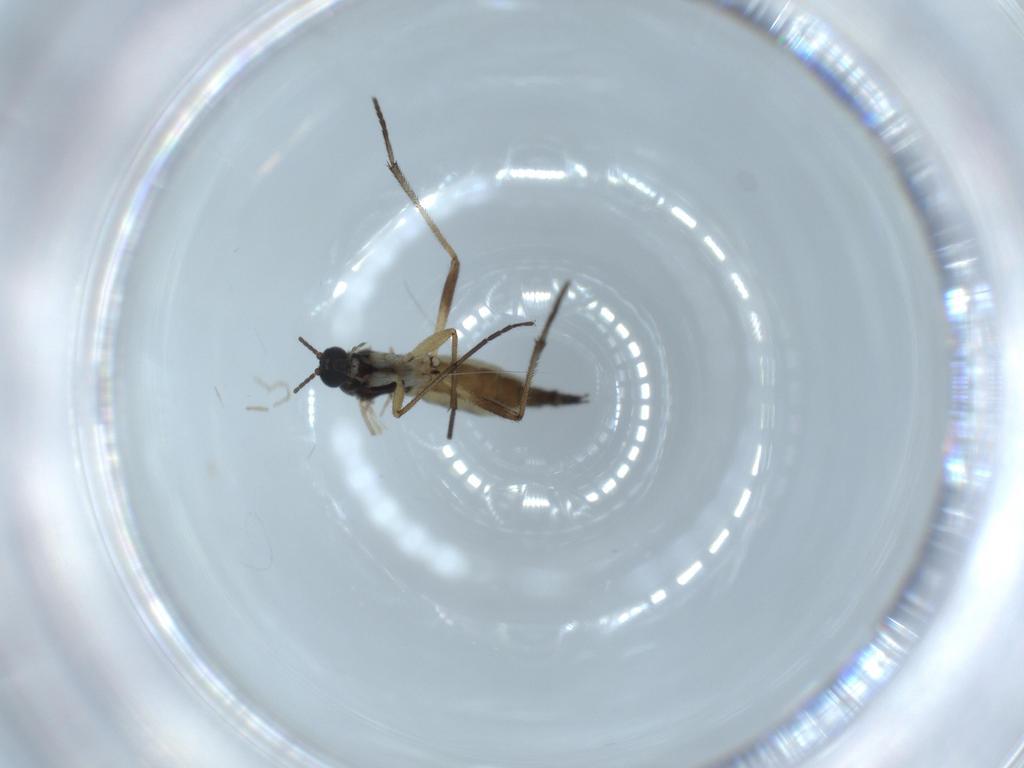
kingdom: Animalia
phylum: Arthropoda
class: Insecta
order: Diptera
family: Sciaridae
